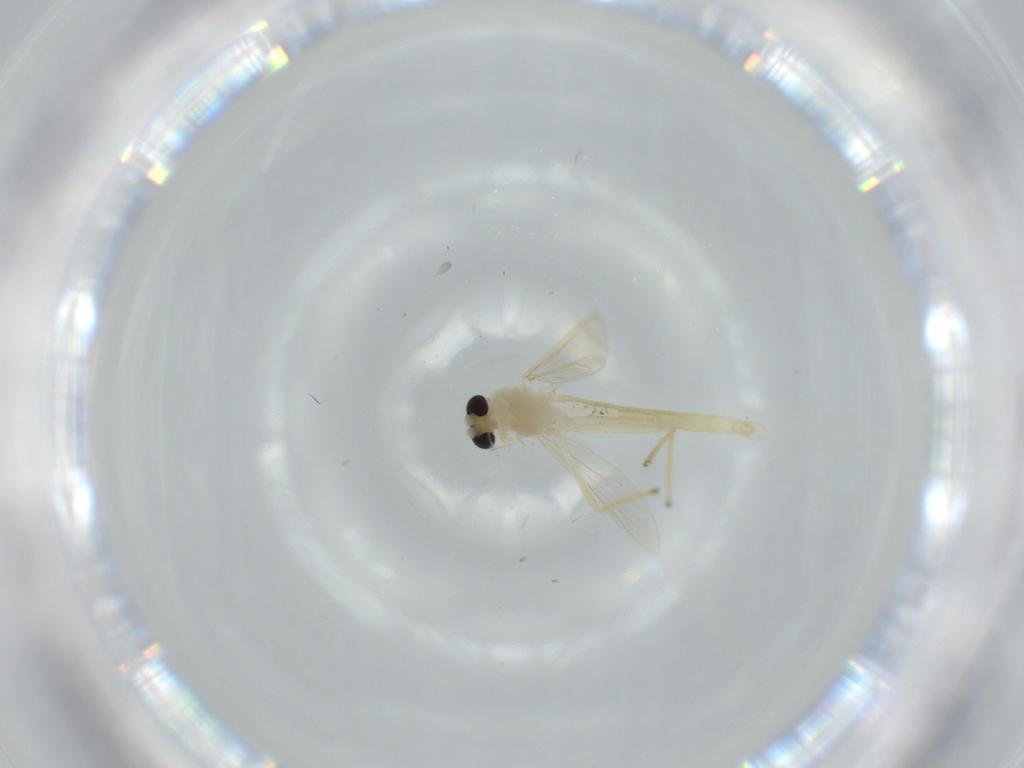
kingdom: Animalia
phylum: Arthropoda
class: Insecta
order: Diptera
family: Chironomidae
